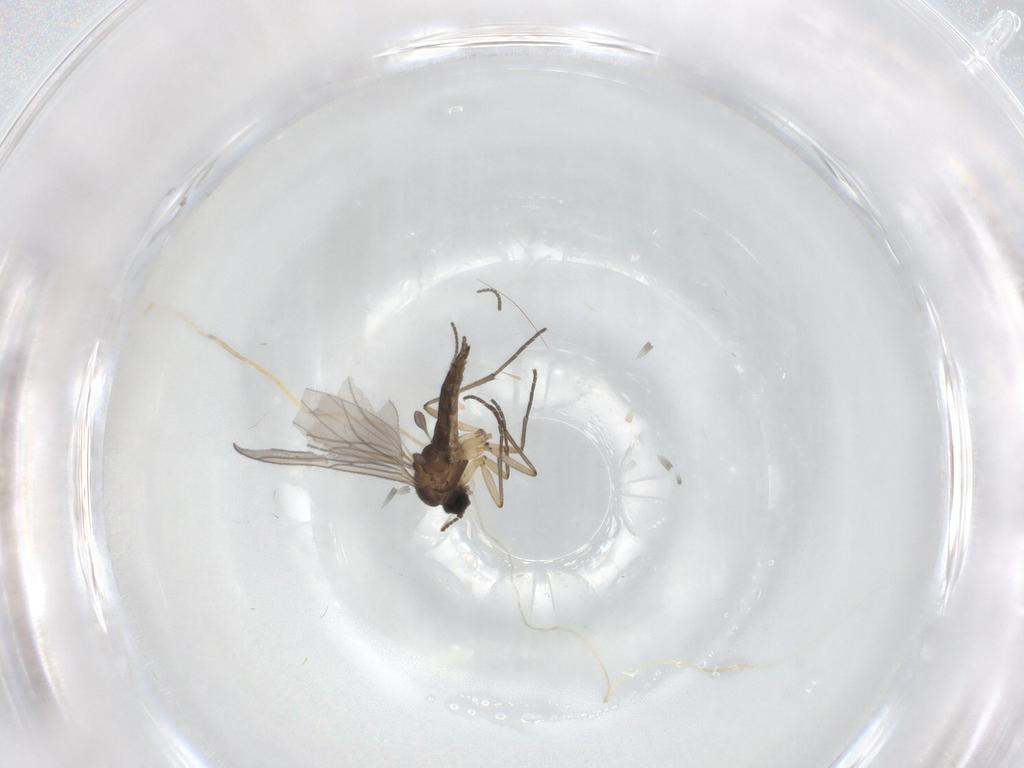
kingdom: Animalia
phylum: Arthropoda
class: Insecta
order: Diptera
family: Sciaridae
